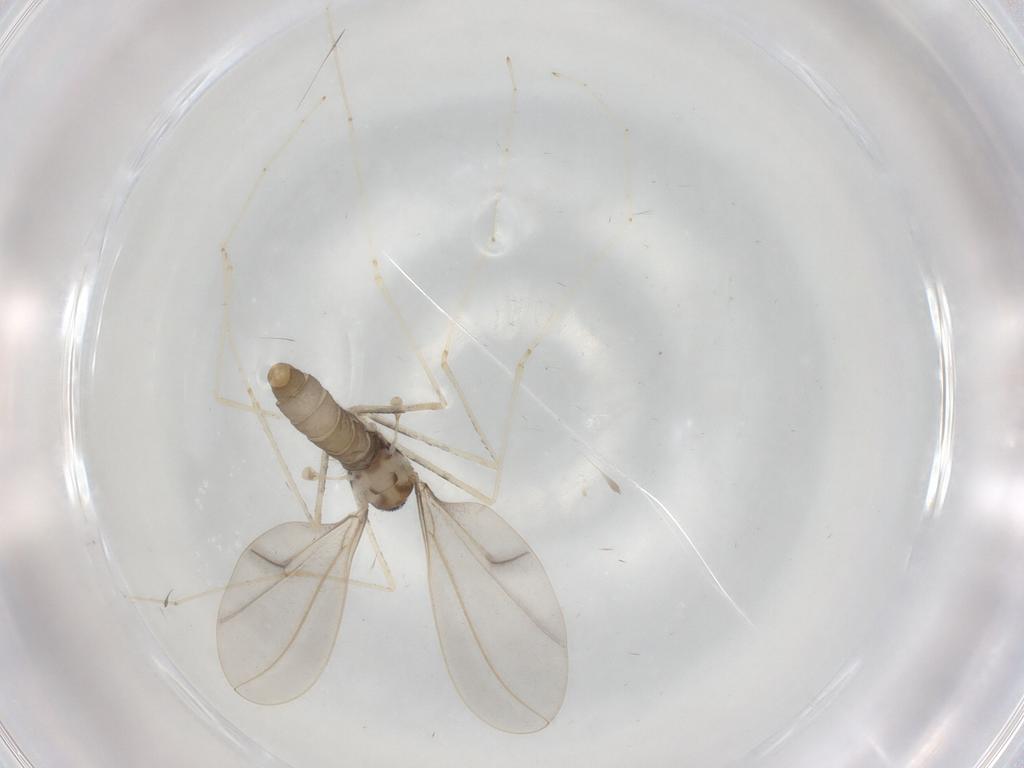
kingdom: Animalia
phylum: Arthropoda
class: Insecta
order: Diptera
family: Cecidomyiidae
